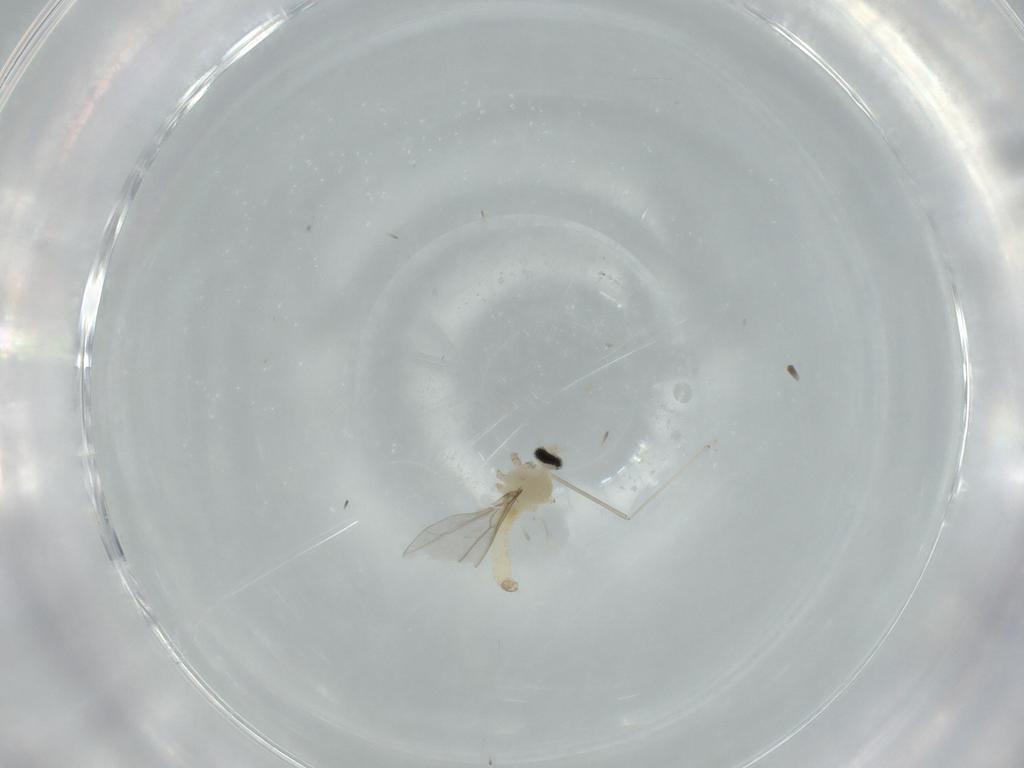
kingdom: Animalia
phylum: Arthropoda
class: Insecta
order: Diptera
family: Cecidomyiidae
